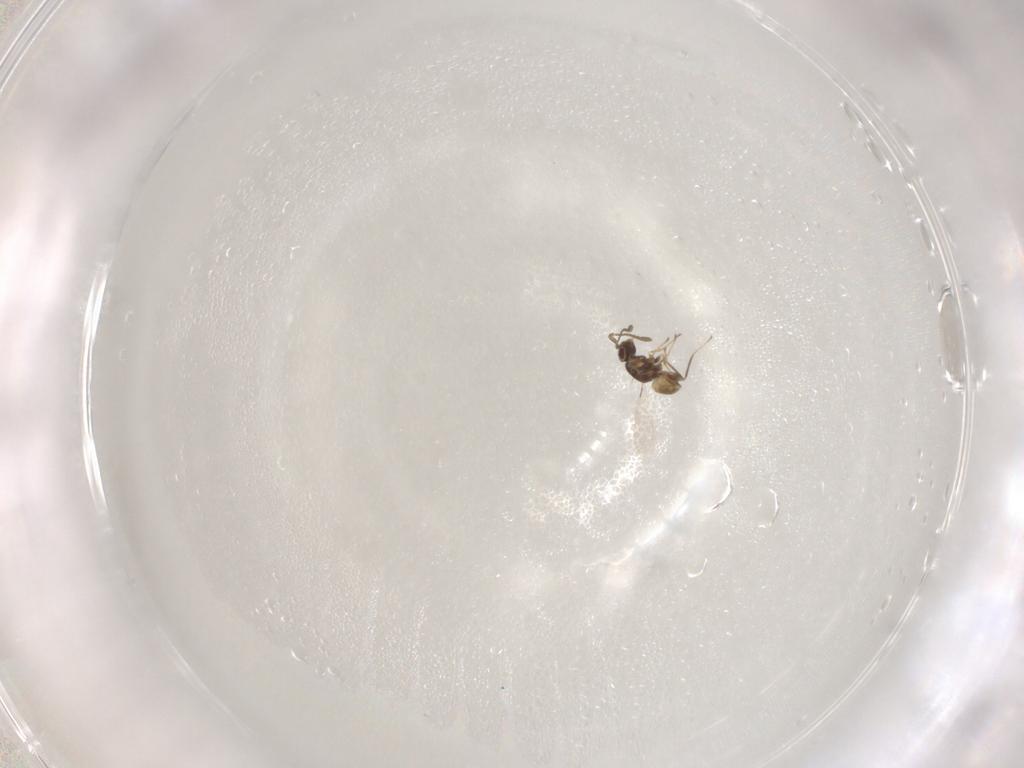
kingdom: Animalia
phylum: Arthropoda
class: Insecta
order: Hymenoptera
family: Mymaridae
